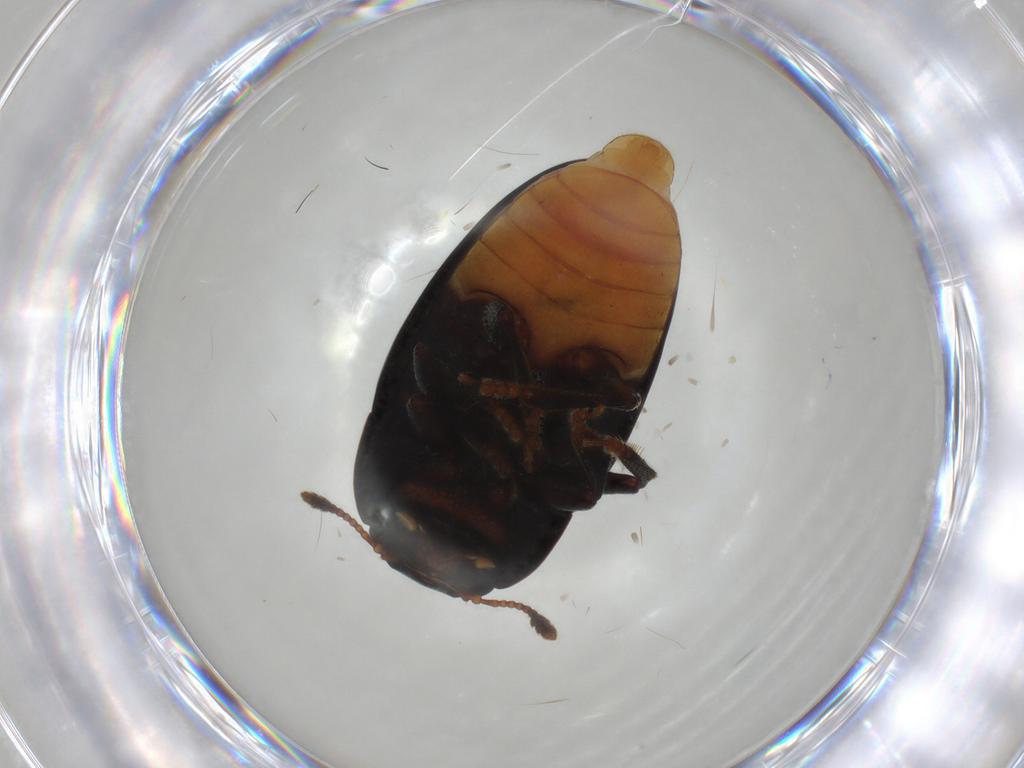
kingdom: Animalia
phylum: Arthropoda
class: Insecta
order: Coleoptera
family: Erotylidae
